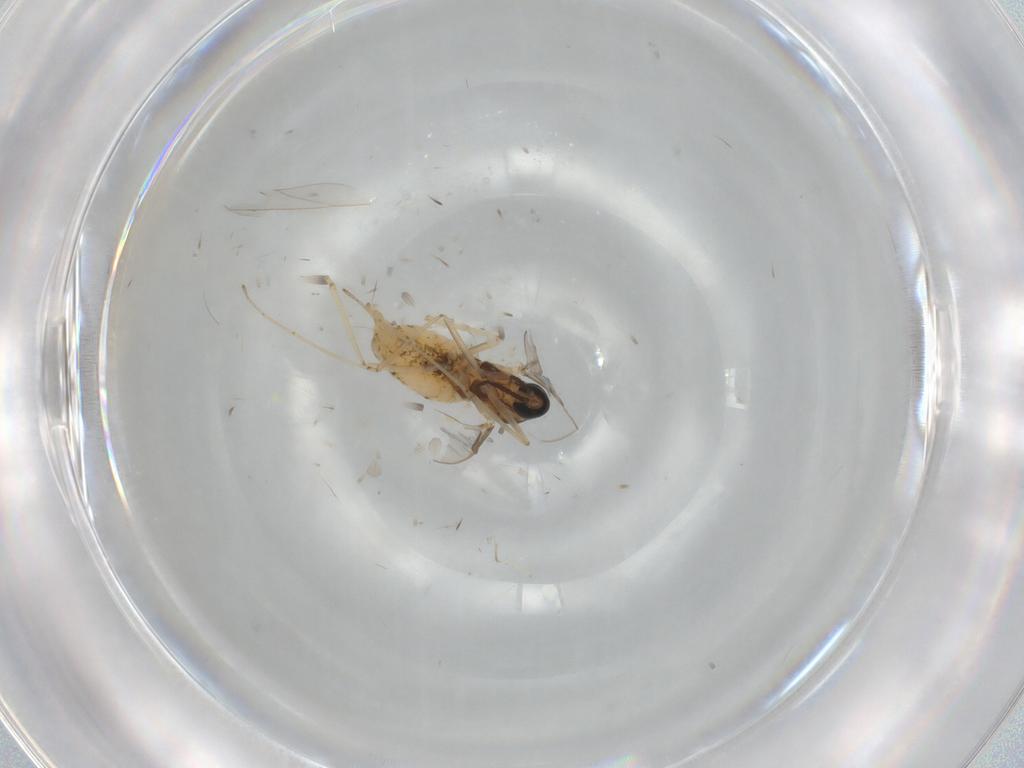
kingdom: Animalia
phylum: Arthropoda
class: Insecta
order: Diptera
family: Cecidomyiidae
